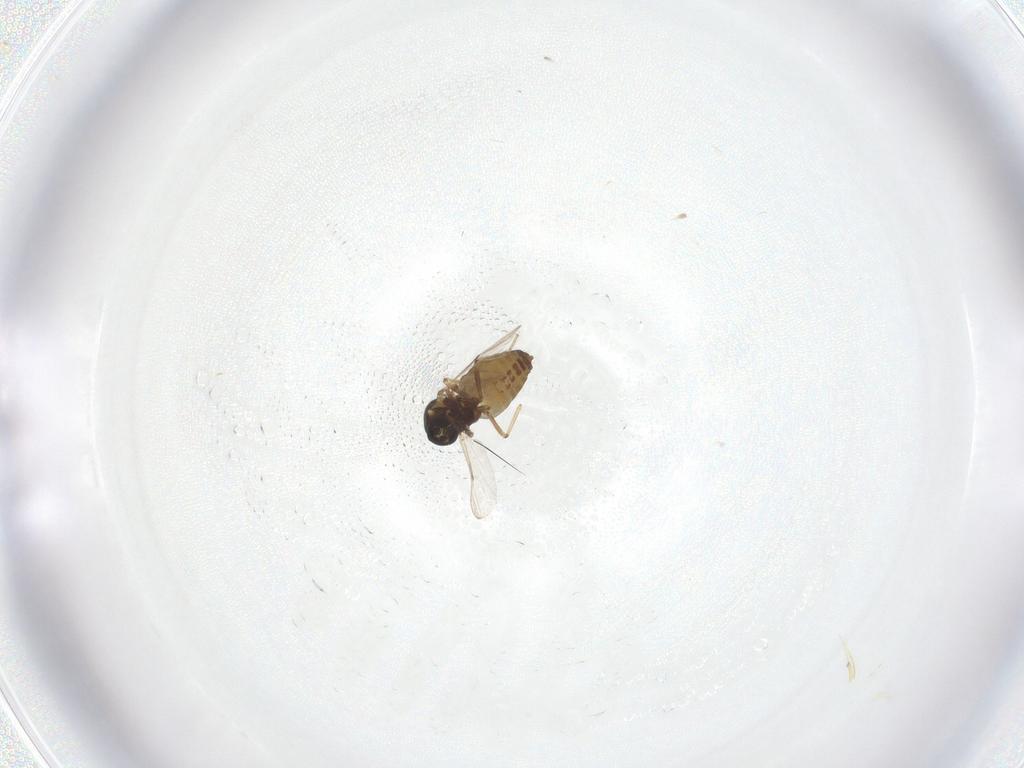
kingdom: Animalia
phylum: Arthropoda
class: Insecta
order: Diptera
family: Ceratopogonidae
